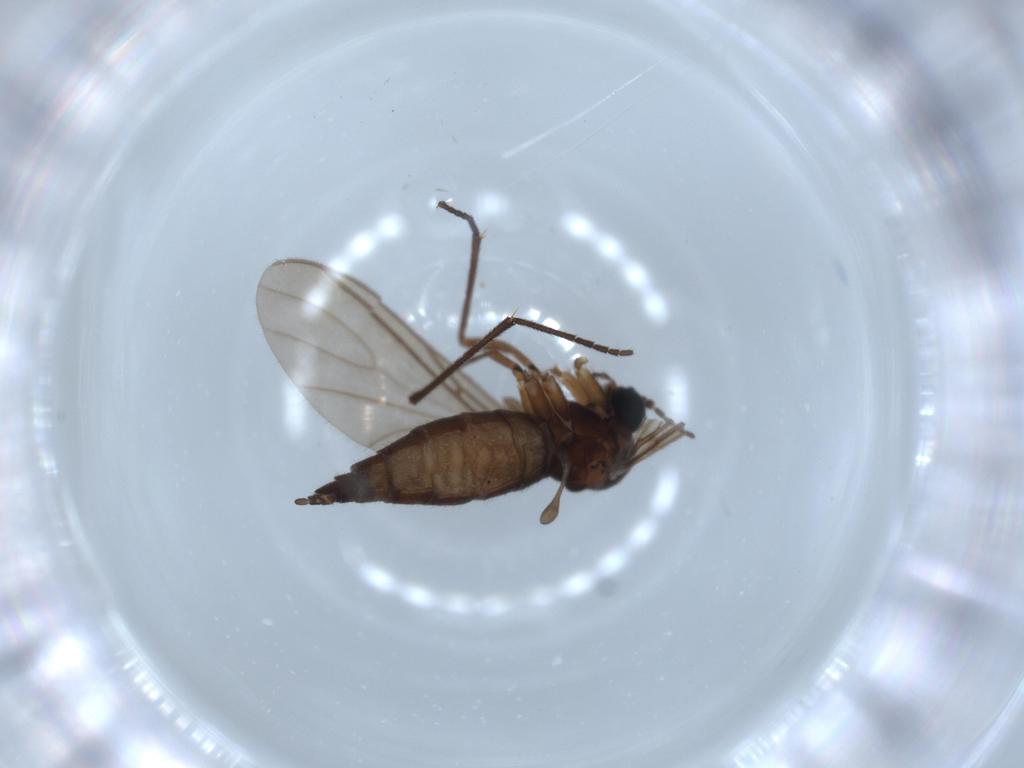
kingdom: Animalia
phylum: Arthropoda
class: Insecta
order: Diptera
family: Sciaridae
